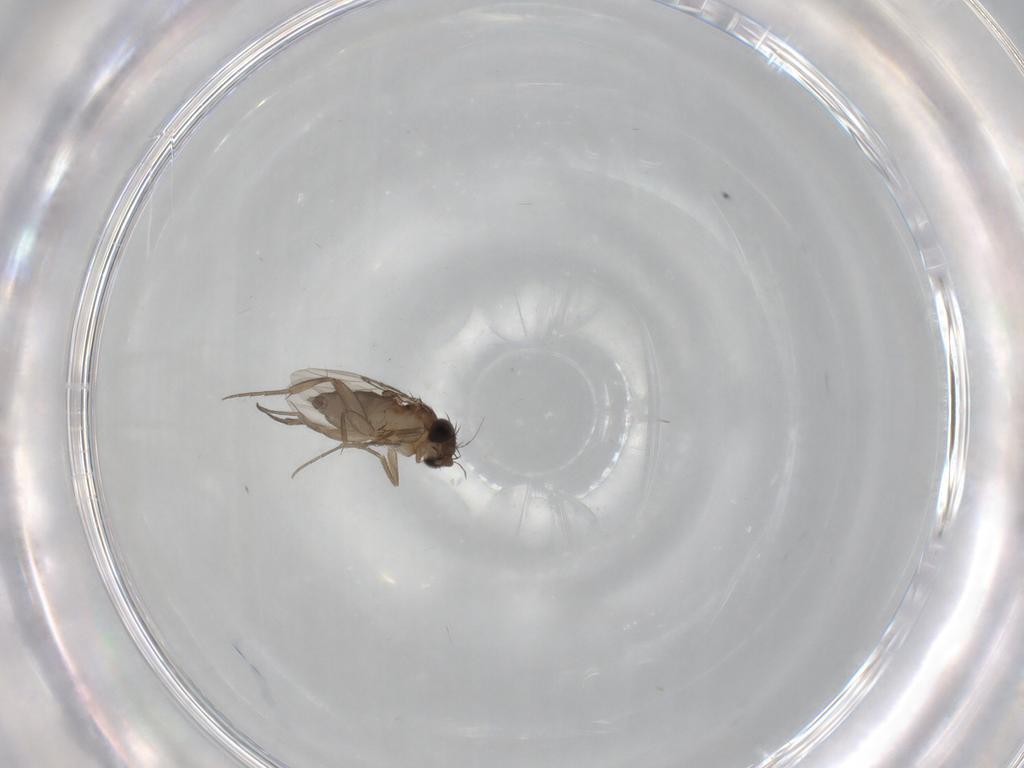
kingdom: Animalia
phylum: Arthropoda
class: Insecta
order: Diptera
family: Phoridae
